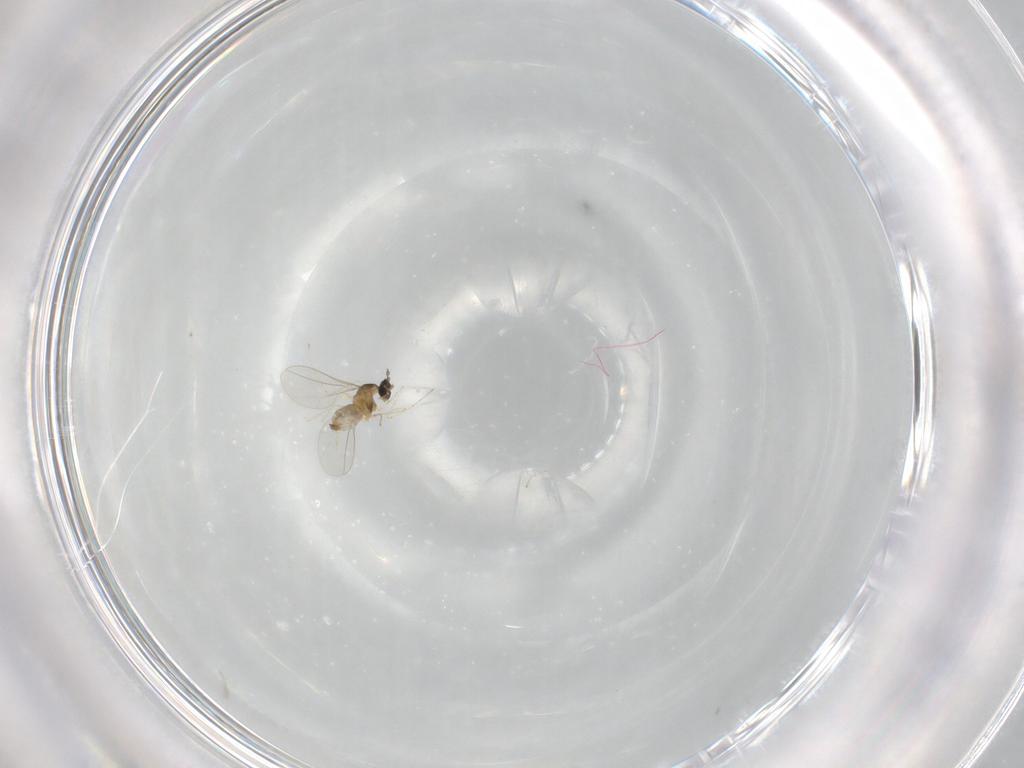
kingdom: Animalia
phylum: Arthropoda
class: Insecta
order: Diptera
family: Cecidomyiidae
